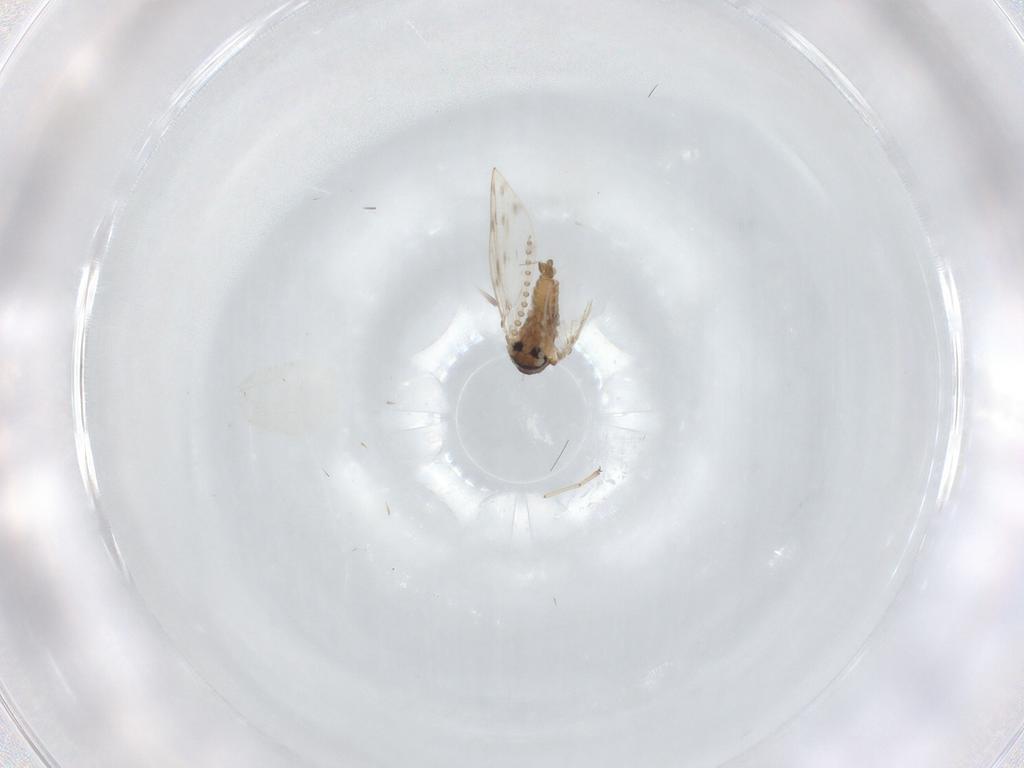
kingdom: Animalia
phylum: Arthropoda
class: Insecta
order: Diptera
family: Psychodidae
